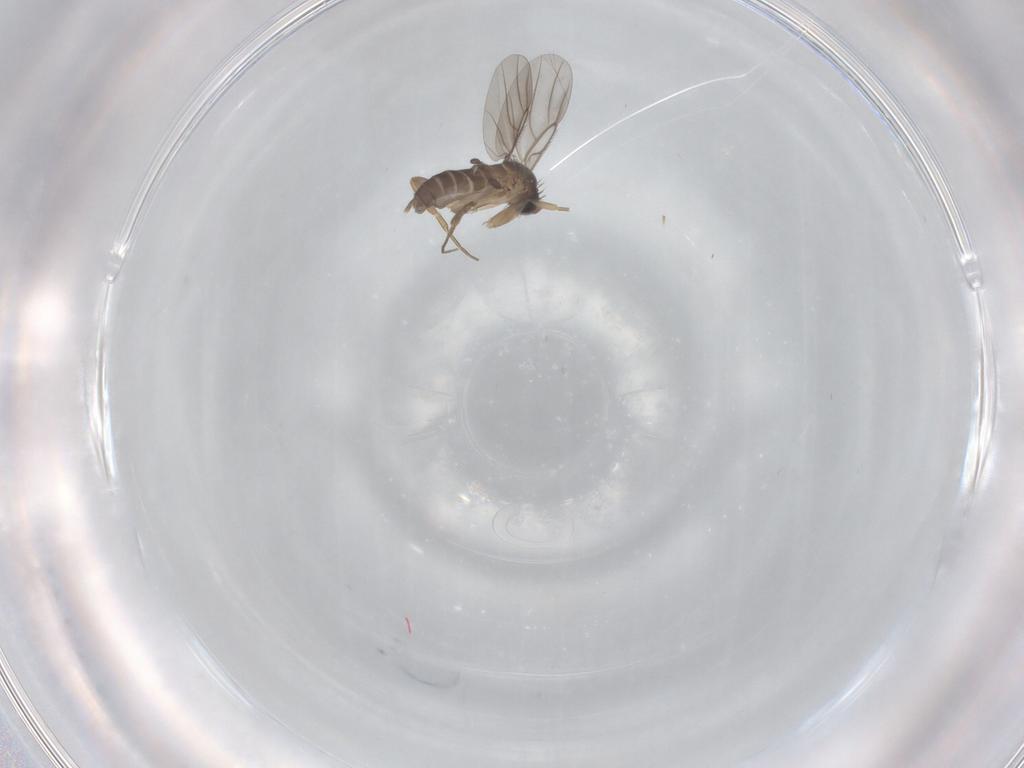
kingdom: Animalia
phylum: Arthropoda
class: Insecta
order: Diptera
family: Phoridae
